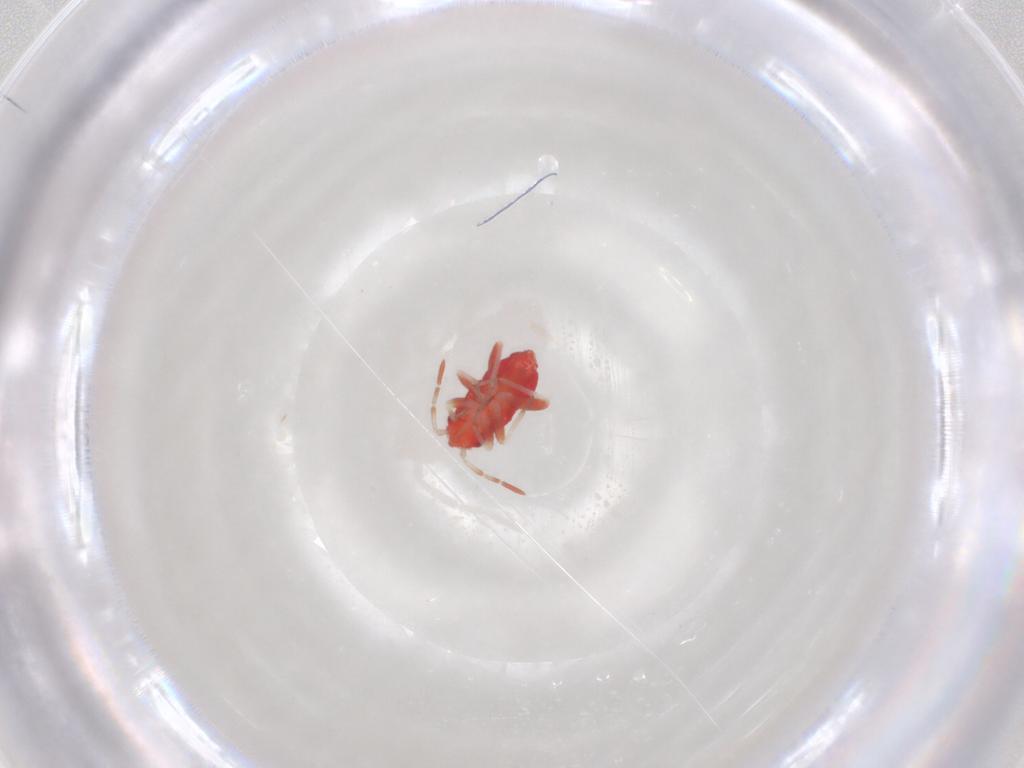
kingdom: Animalia
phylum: Arthropoda
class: Insecta
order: Hemiptera
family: Miridae
